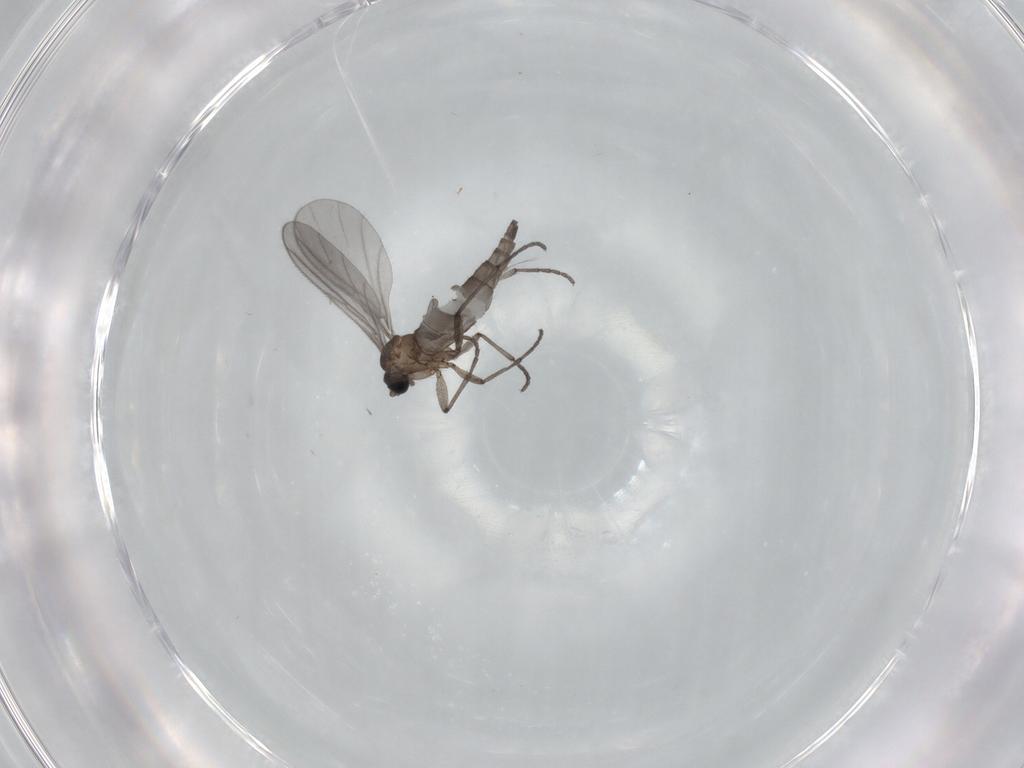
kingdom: Animalia
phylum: Arthropoda
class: Insecta
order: Diptera
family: Sciaridae
